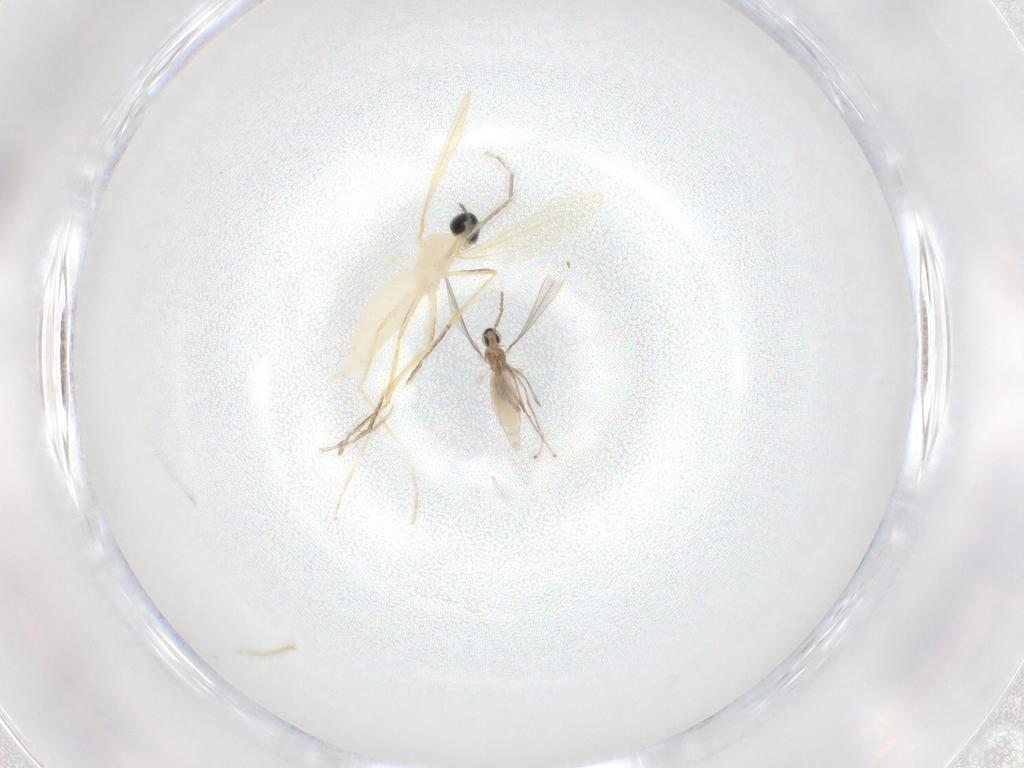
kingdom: Animalia
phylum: Arthropoda
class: Insecta
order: Diptera
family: Cecidomyiidae
